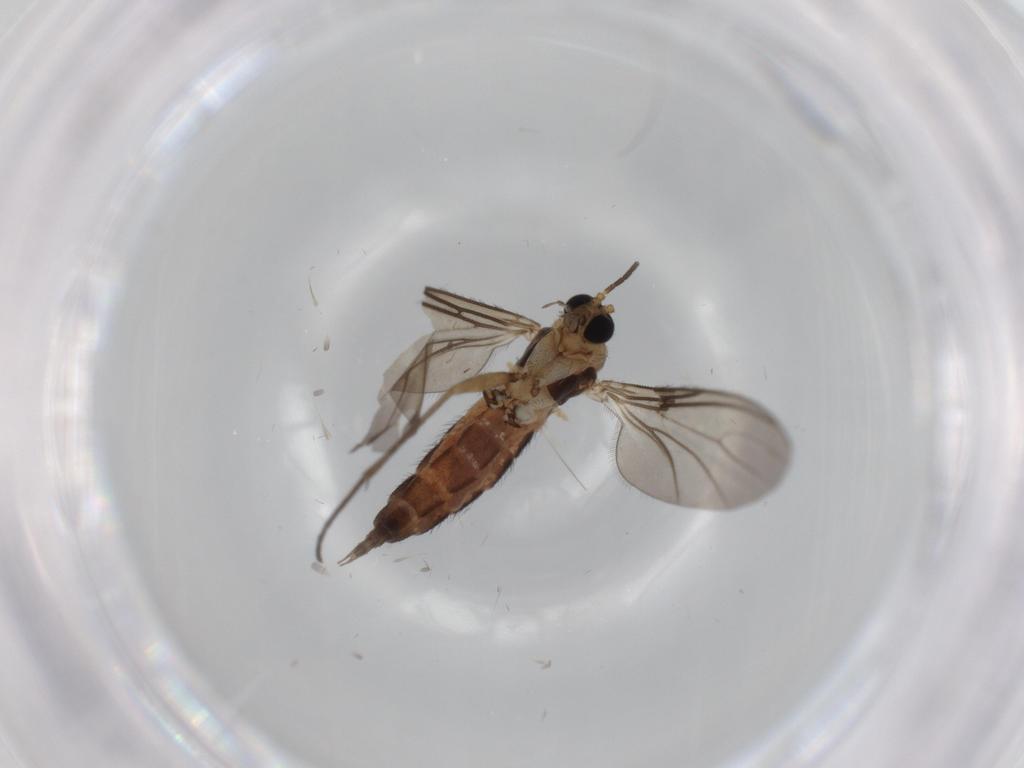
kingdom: Animalia
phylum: Arthropoda
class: Insecta
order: Diptera
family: Sciaridae
